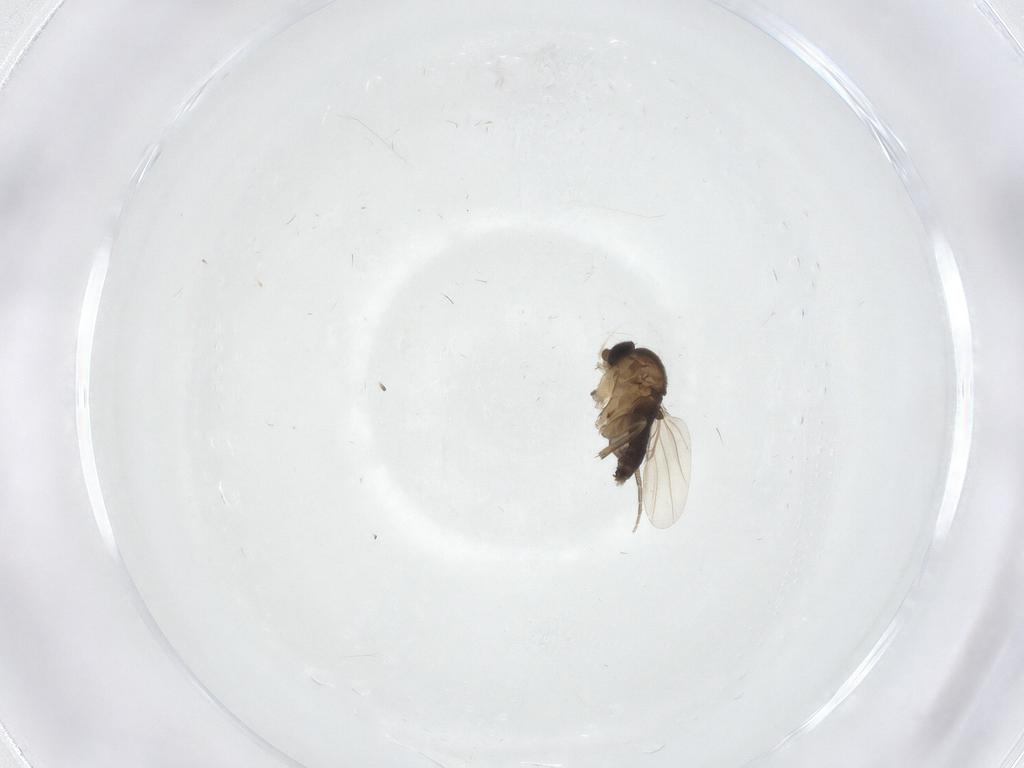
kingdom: Animalia
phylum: Arthropoda
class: Insecta
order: Diptera
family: Phoridae
